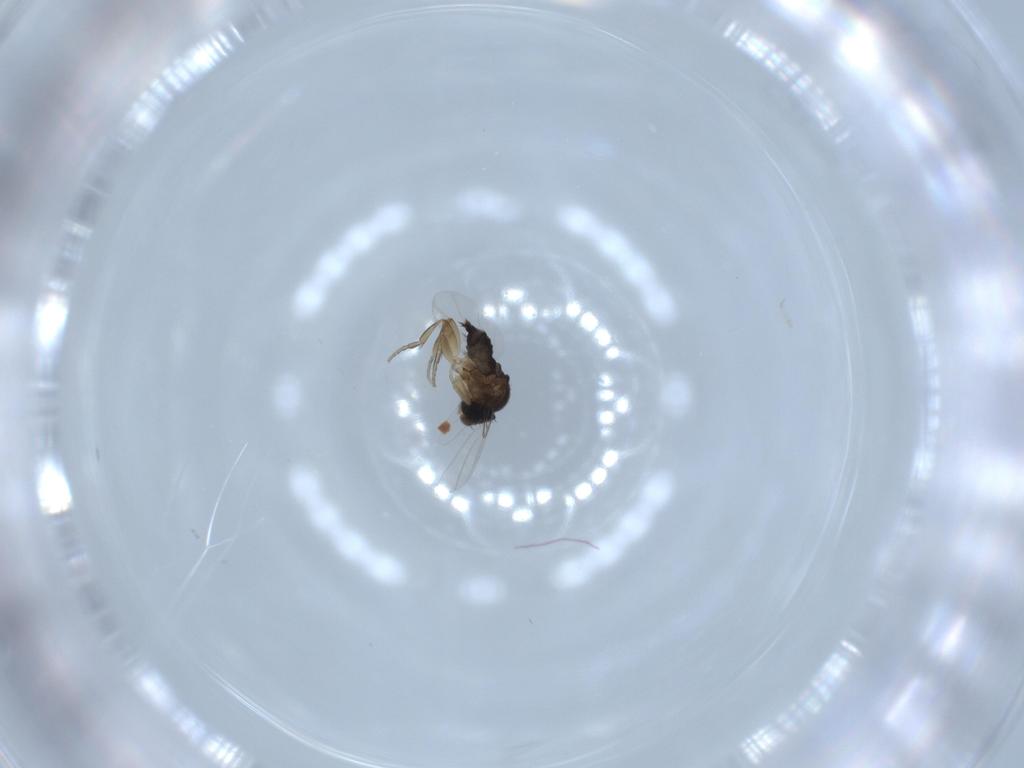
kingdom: Animalia
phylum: Arthropoda
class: Insecta
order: Diptera
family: Phoridae
